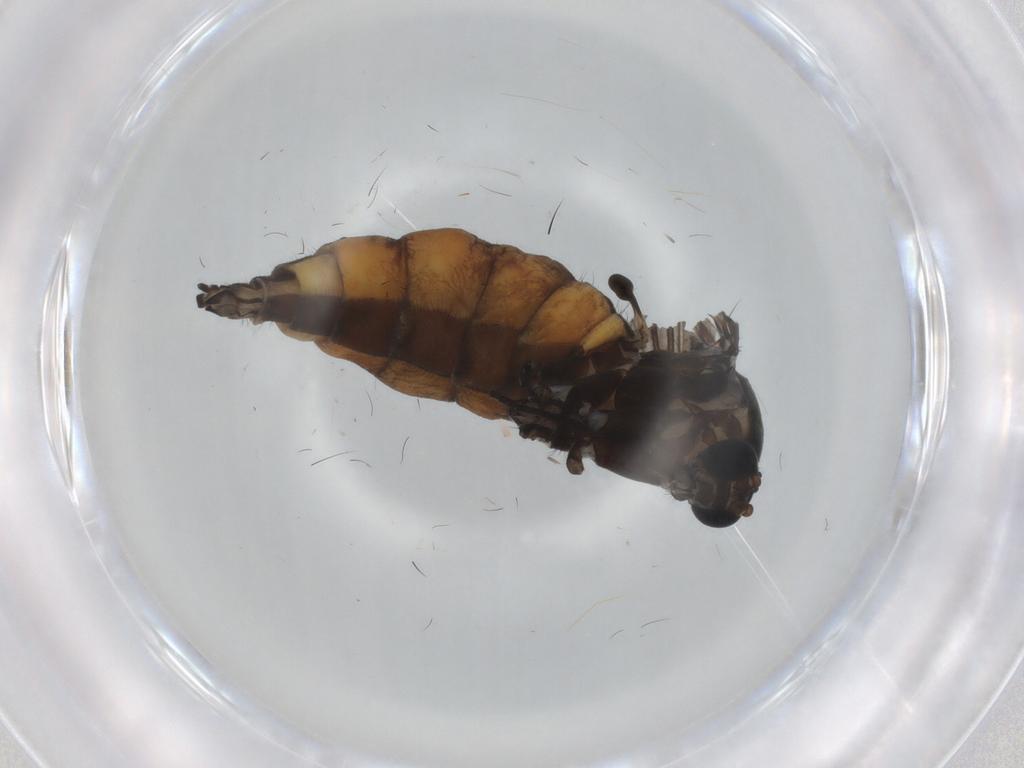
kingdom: Animalia
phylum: Arthropoda
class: Insecta
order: Diptera
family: Sciaridae
